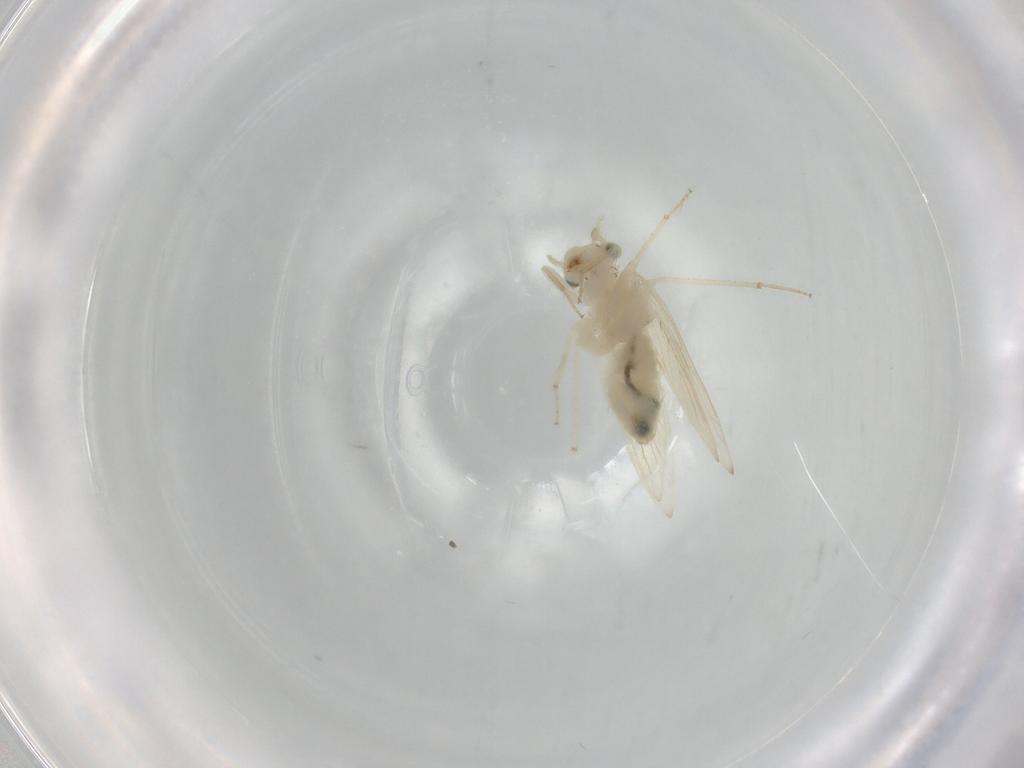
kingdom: Animalia
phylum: Arthropoda
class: Insecta
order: Psocodea
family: Lepidopsocidae
